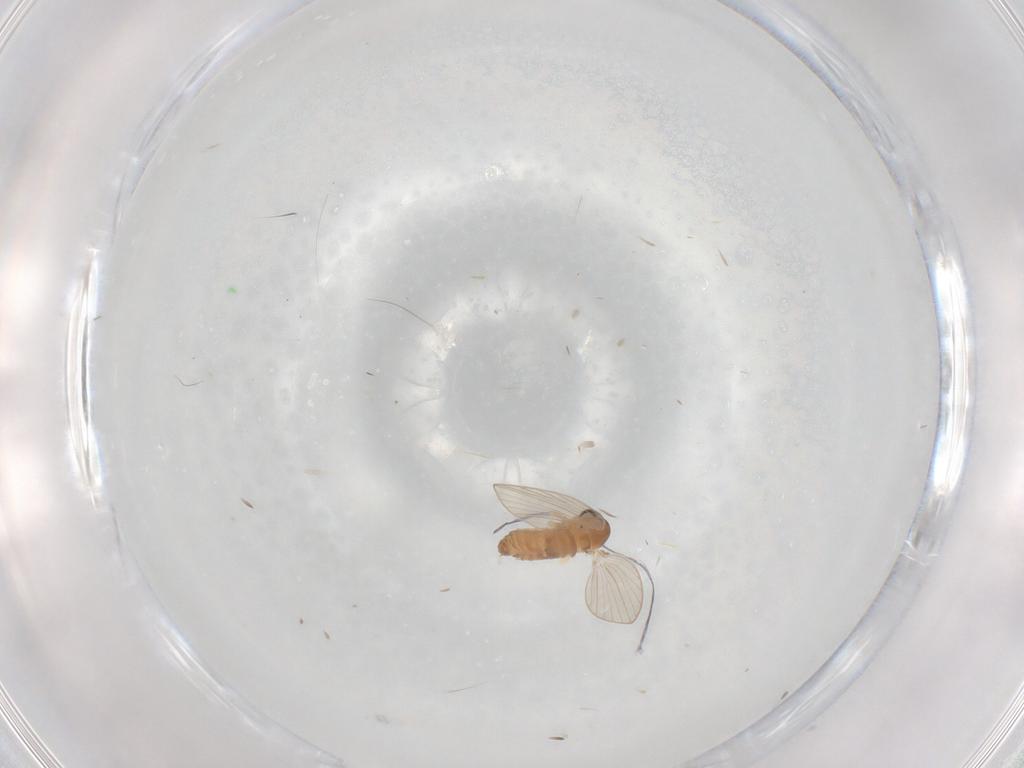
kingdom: Animalia
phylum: Arthropoda
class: Insecta
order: Diptera
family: Psychodidae
